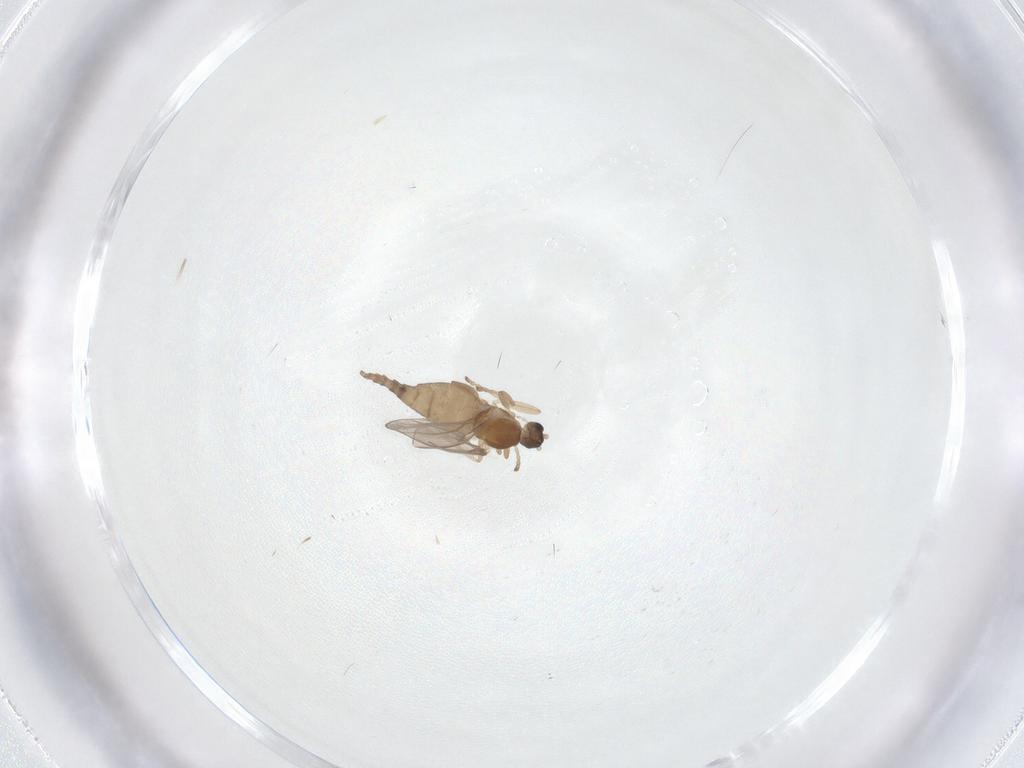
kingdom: Animalia
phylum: Arthropoda
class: Insecta
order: Diptera
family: Cecidomyiidae
